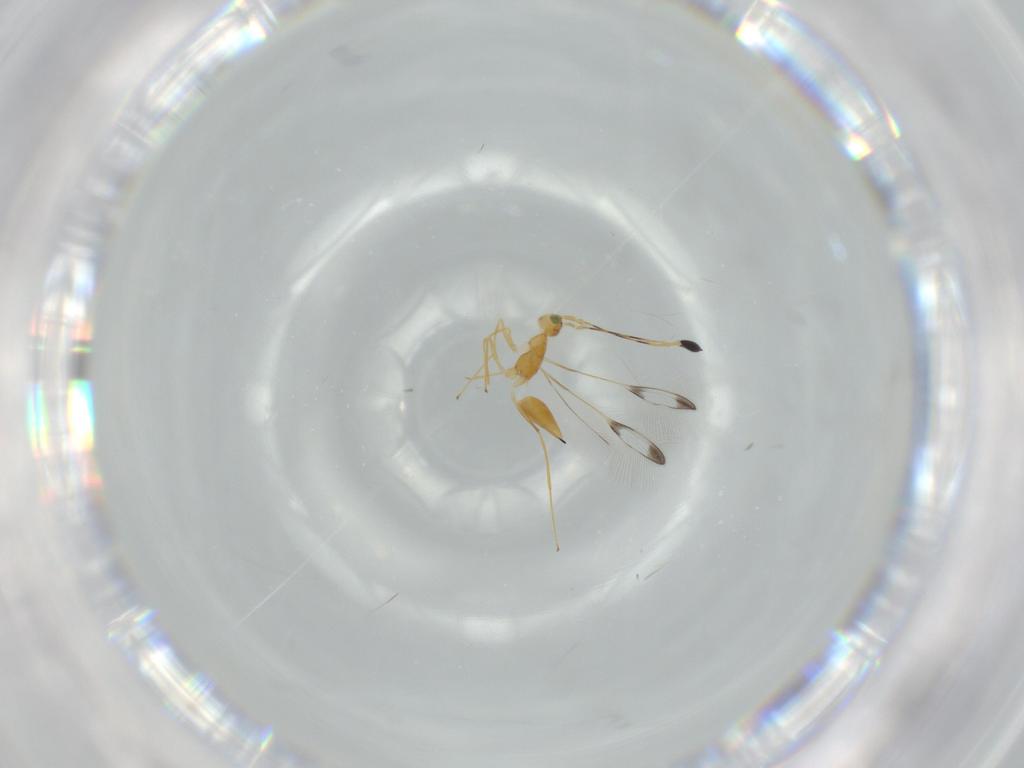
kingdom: Animalia
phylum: Arthropoda
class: Insecta
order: Hymenoptera
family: Mymaridae
